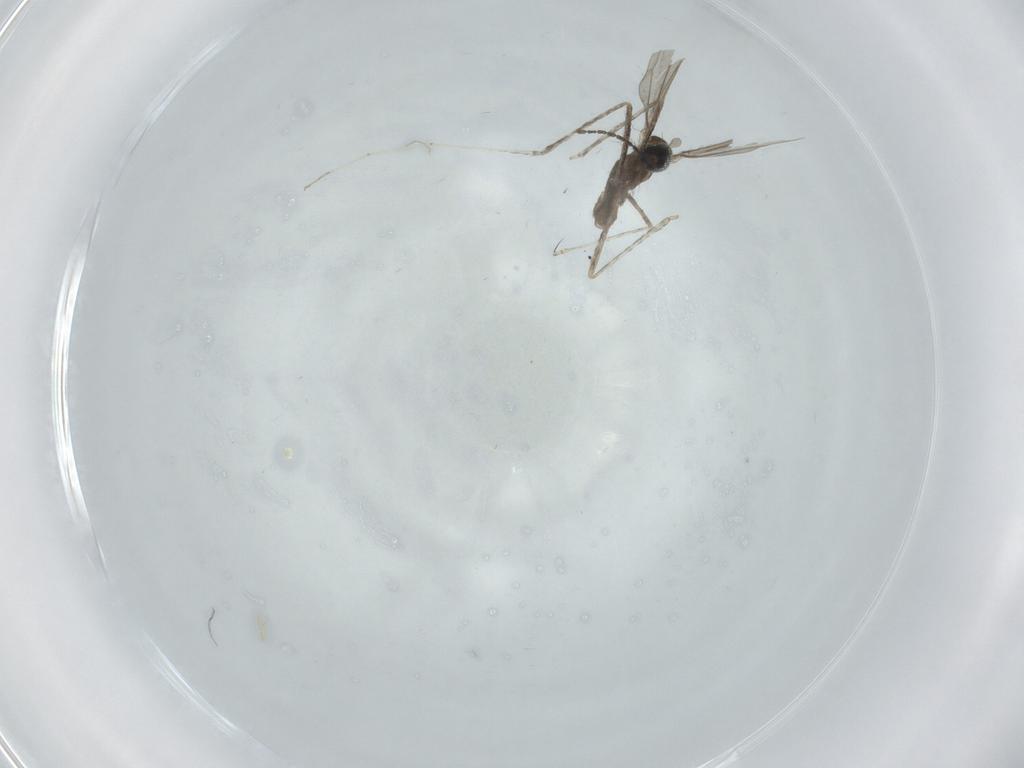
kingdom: Animalia
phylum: Arthropoda
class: Insecta
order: Diptera
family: Cecidomyiidae
